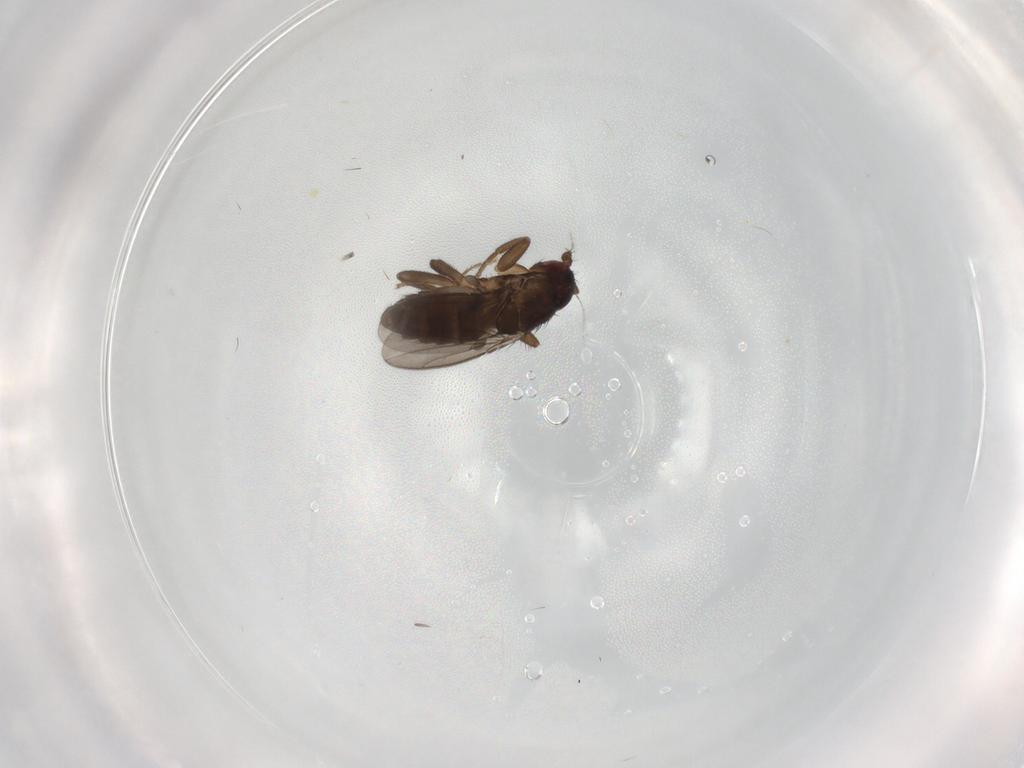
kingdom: Animalia
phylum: Arthropoda
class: Insecta
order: Diptera
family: Sphaeroceridae
